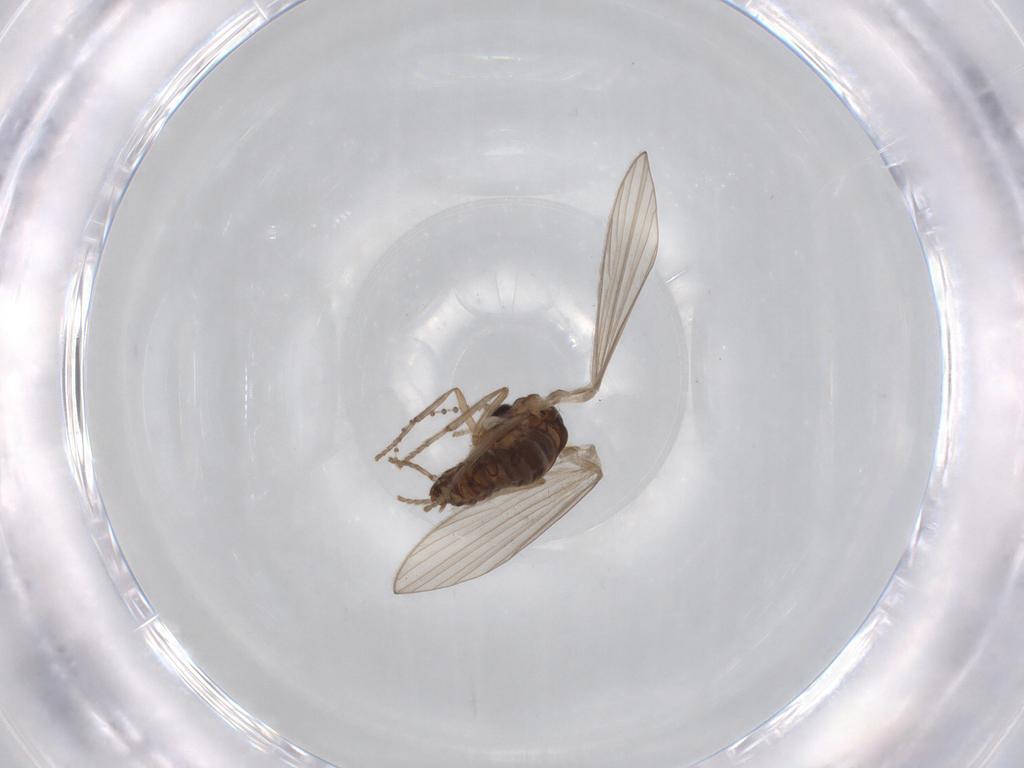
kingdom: Animalia
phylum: Arthropoda
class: Insecta
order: Diptera
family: Psychodidae
